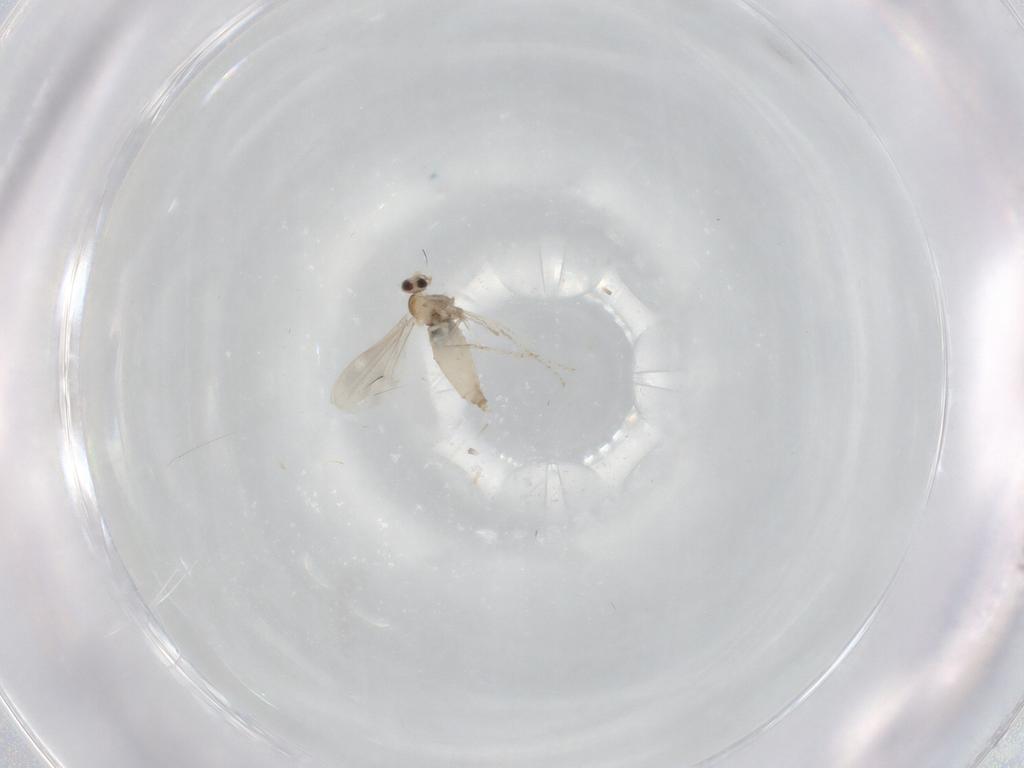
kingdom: Animalia
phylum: Arthropoda
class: Insecta
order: Diptera
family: Cecidomyiidae
